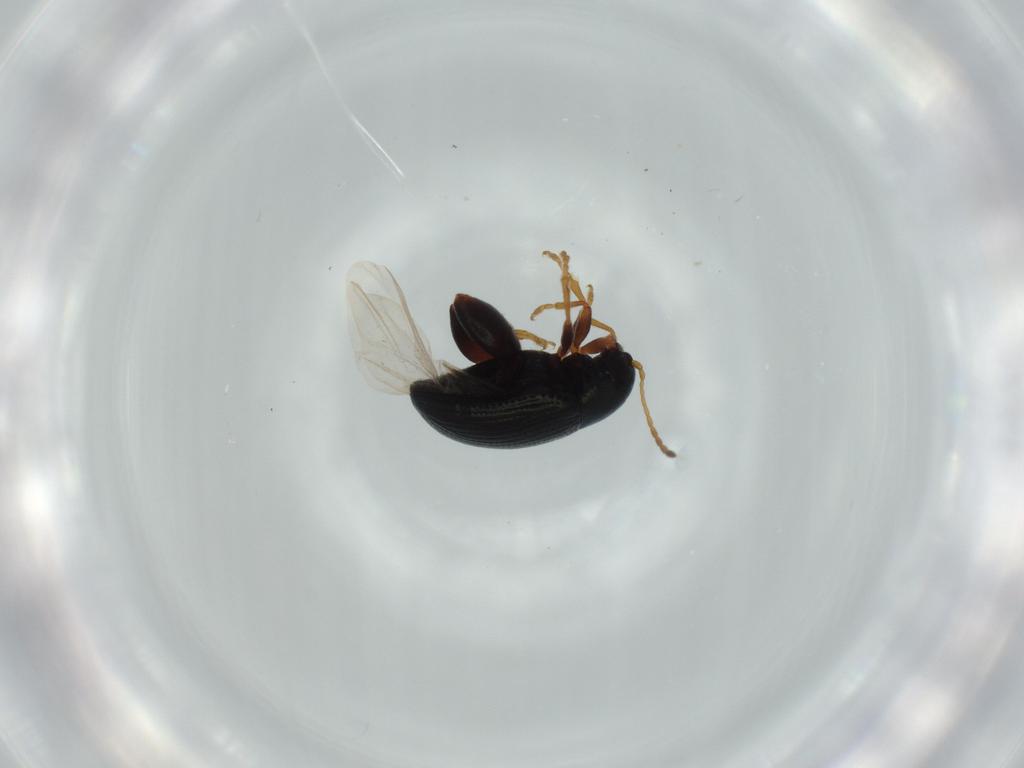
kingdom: Animalia
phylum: Arthropoda
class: Insecta
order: Coleoptera
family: Chrysomelidae
